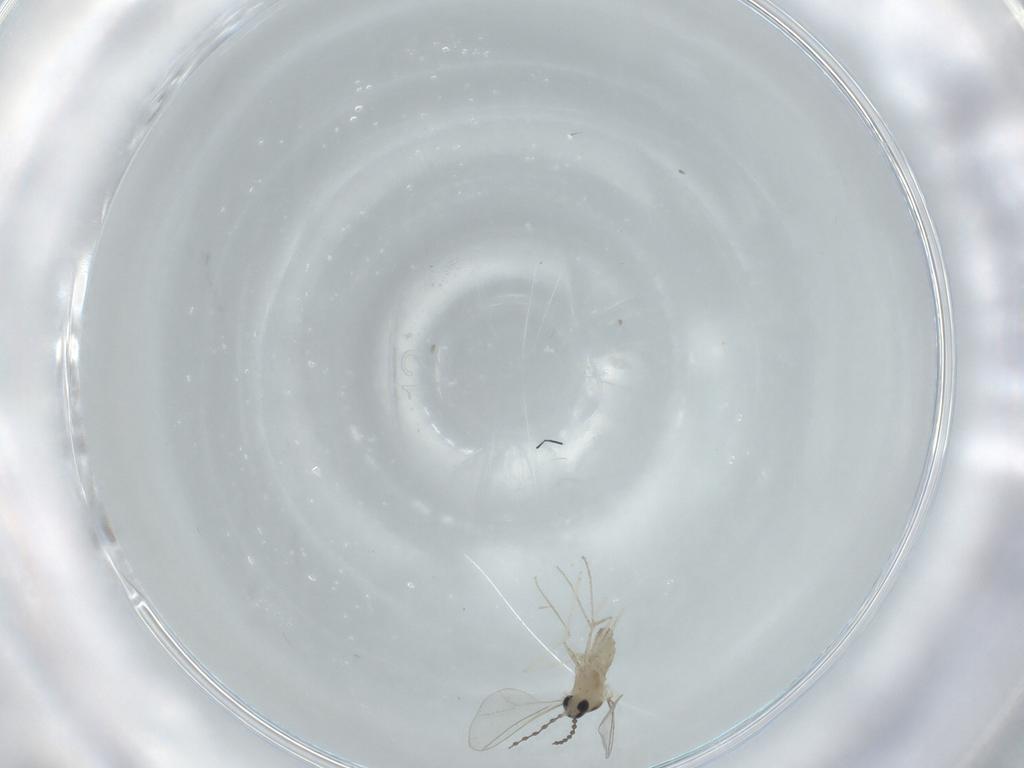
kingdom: Animalia
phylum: Arthropoda
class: Insecta
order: Diptera
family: Cecidomyiidae
